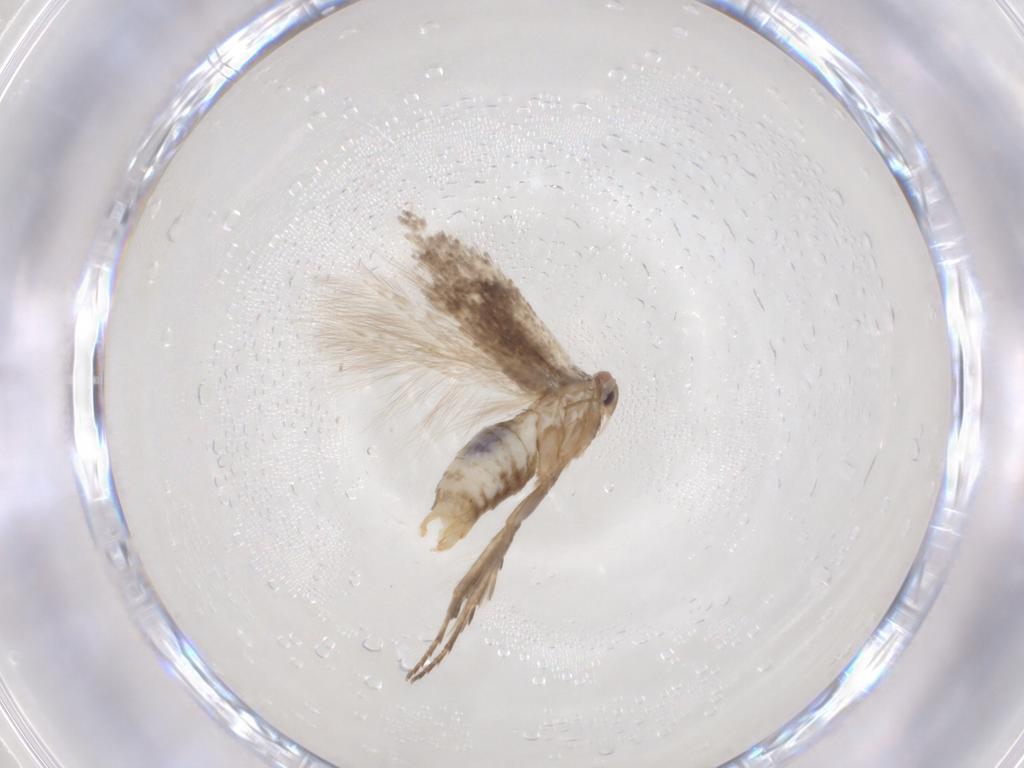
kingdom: Animalia
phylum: Arthropoda
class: Insecta
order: Lepidoptera
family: Bucculatricidae
